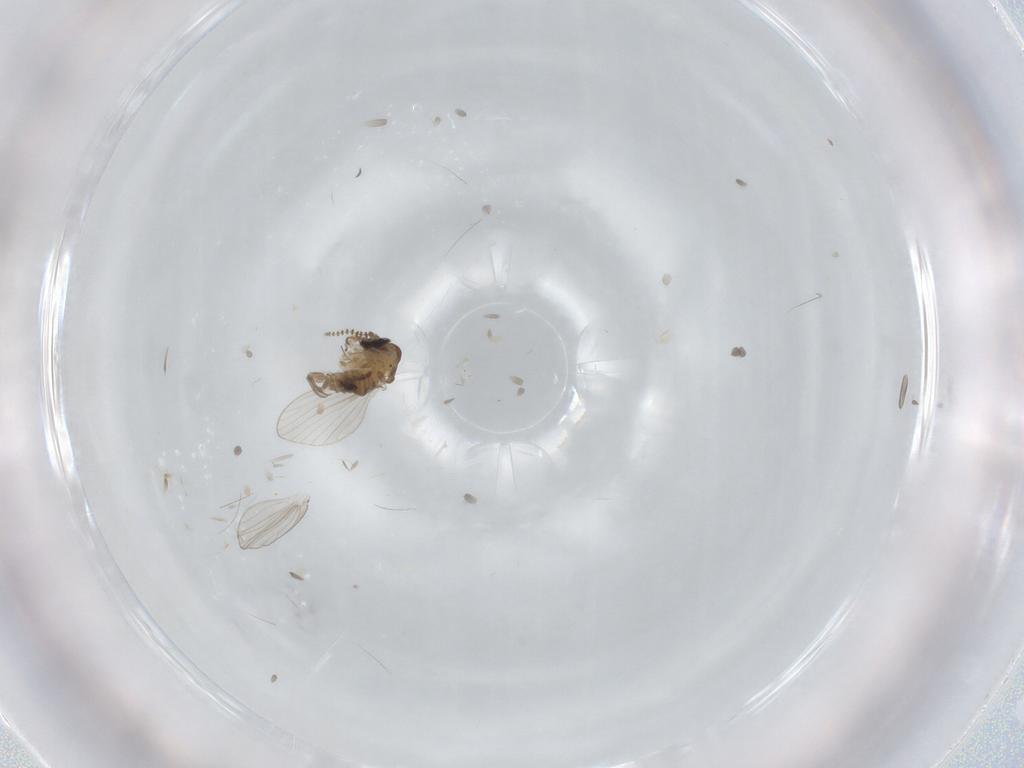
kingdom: Animalia
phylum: Arthropoda
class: Insecta
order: Diptera
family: Psychodidae
